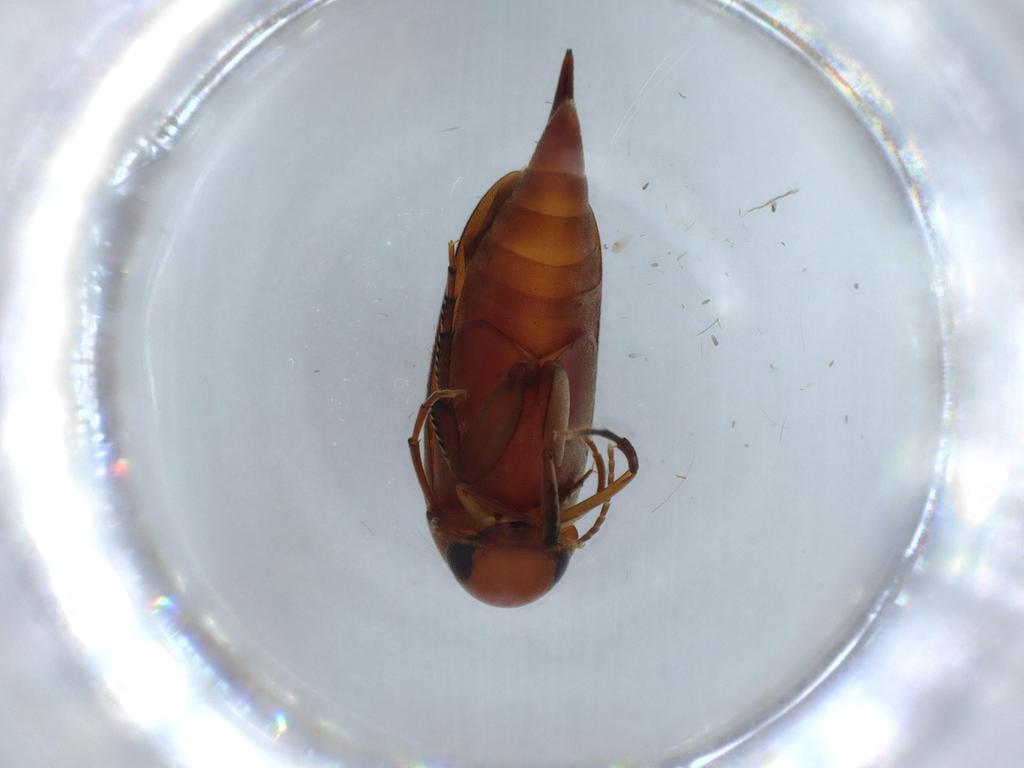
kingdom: Animalia
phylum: Arthropoda
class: Insecta
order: Coleoptera
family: Mordellidae
